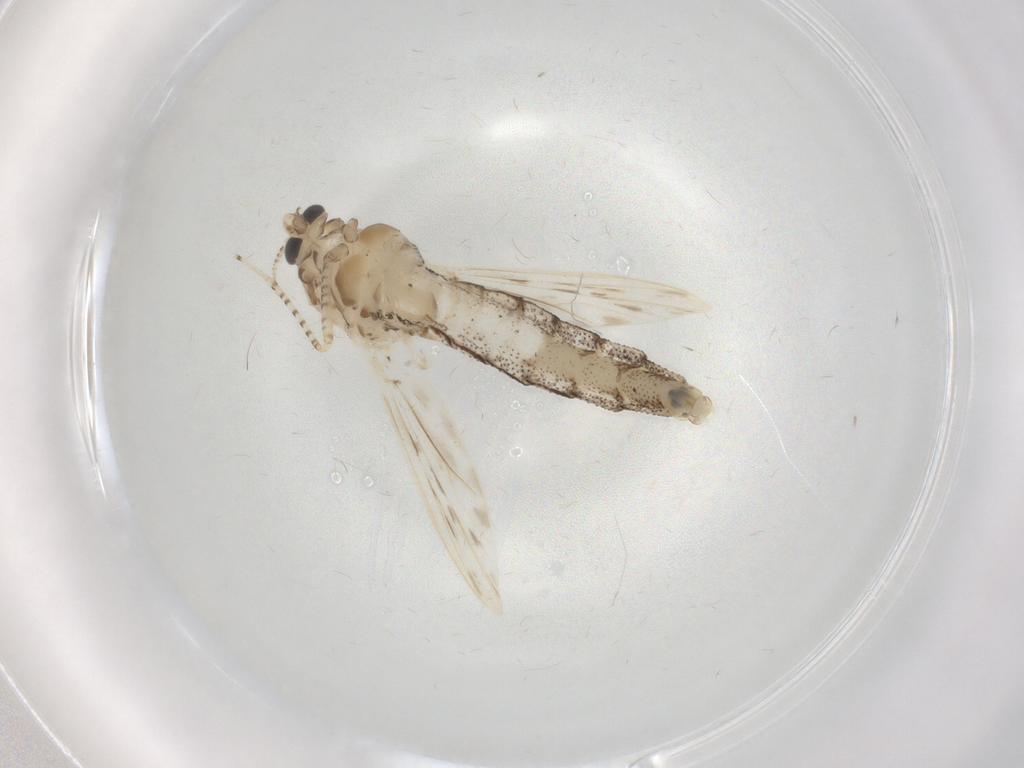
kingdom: Animalia
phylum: Arthropoda
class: Insecta
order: Diptera
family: Chaoboridae
